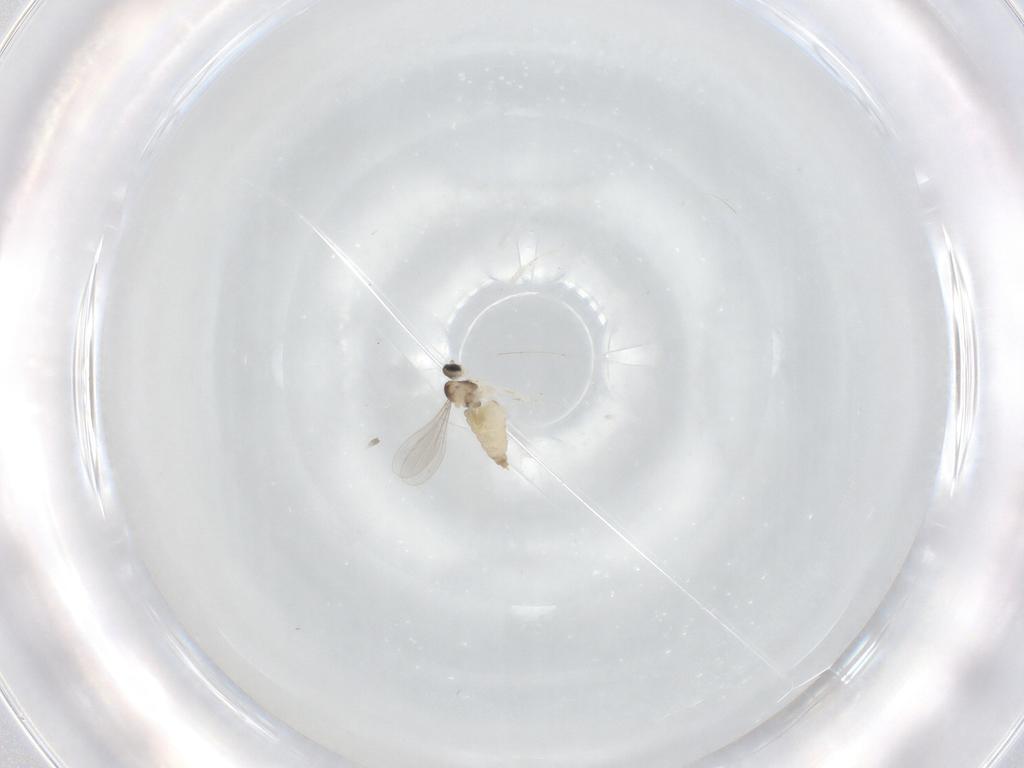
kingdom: Animalia
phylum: Arthropoda
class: Insecta
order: Diptera
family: Cecidomyiidae
